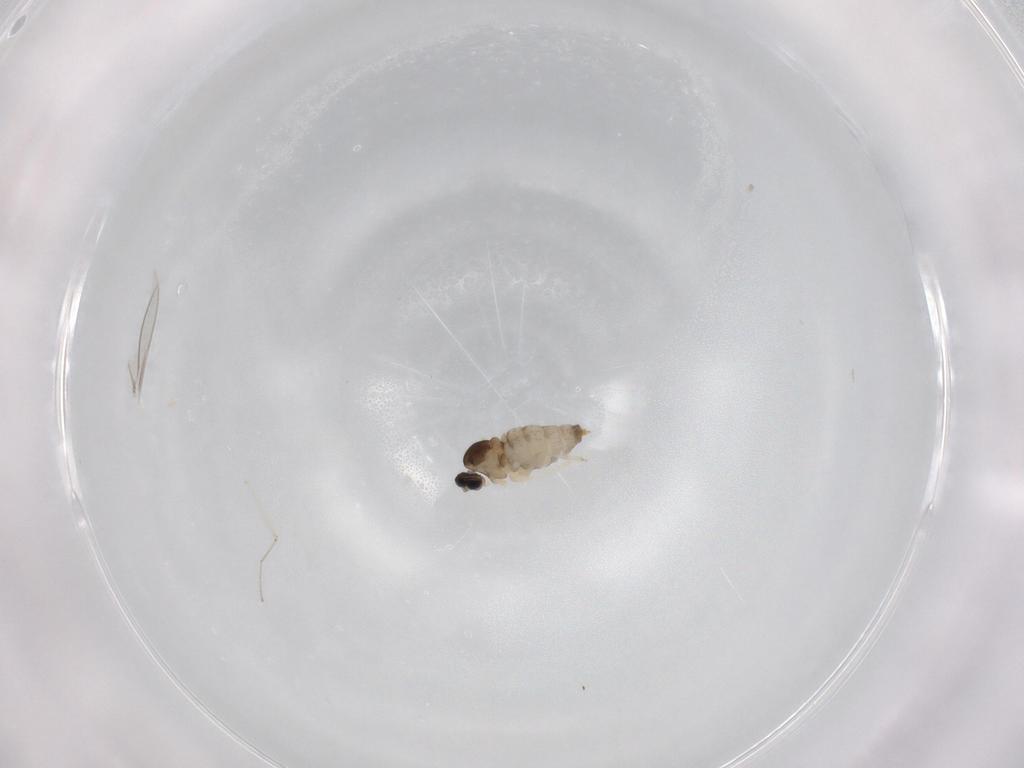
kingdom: Animalia
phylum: Arthropoda
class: Insecta
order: Diptera
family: Cecidomyiidae
